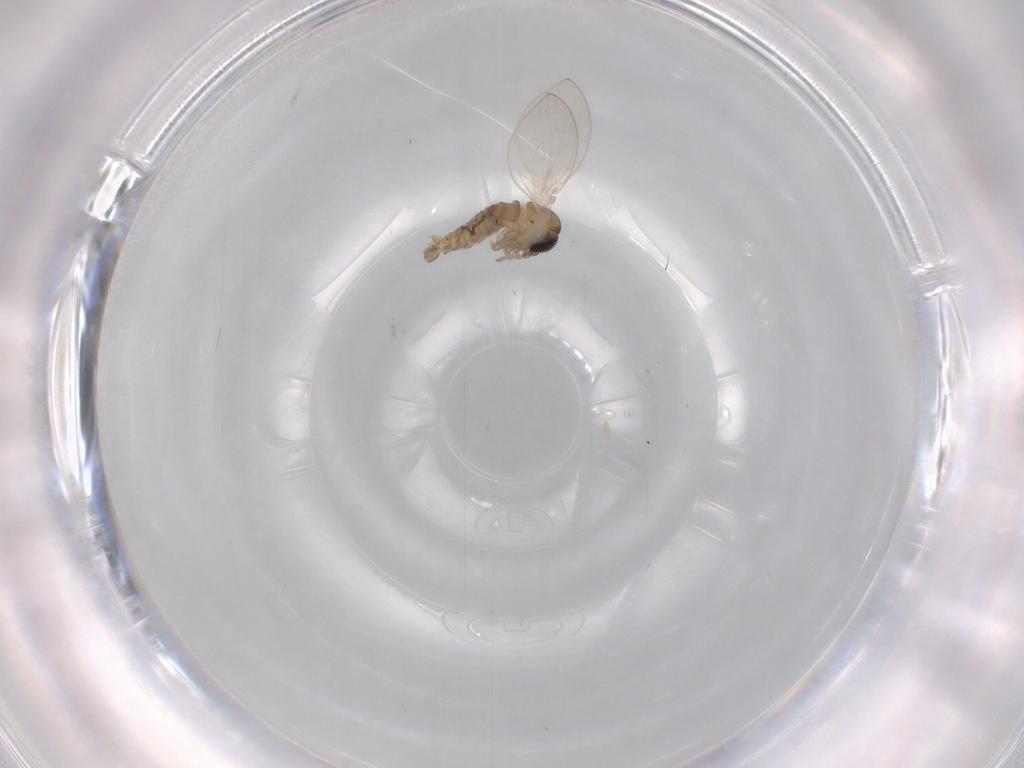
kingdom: Animalia
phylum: Arthropoda
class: Insecta
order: Diptera
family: Psychodidae
